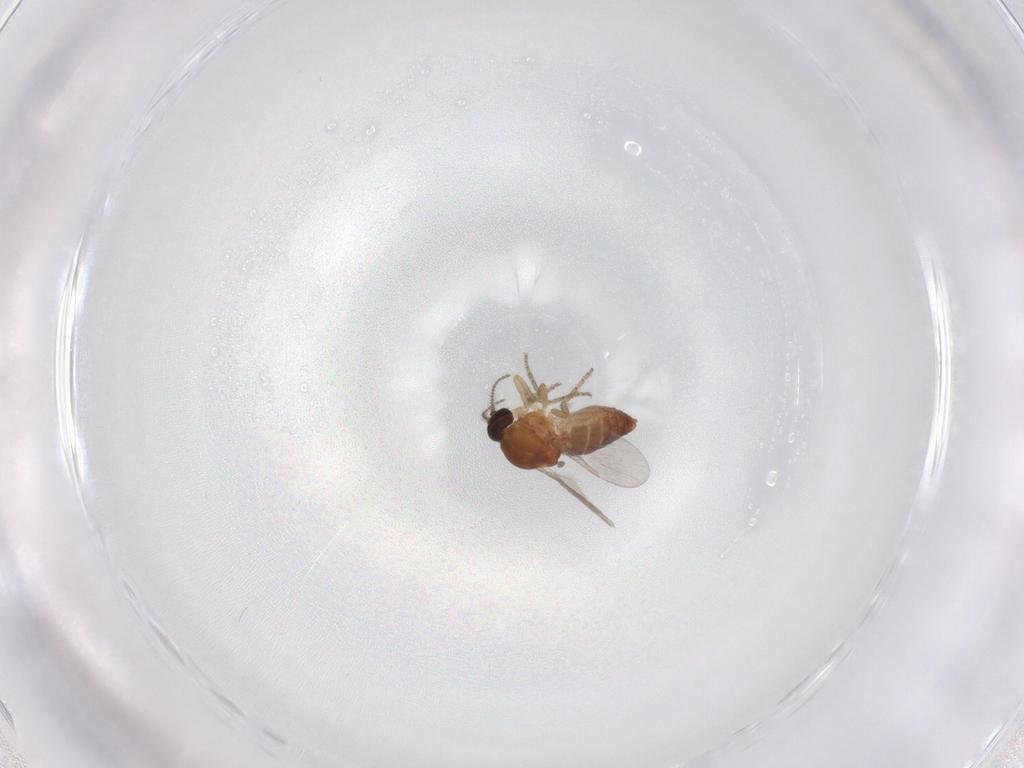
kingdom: Animalia
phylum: Arthropoda
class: Insecta
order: Diptera
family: Ceratopogonidae
